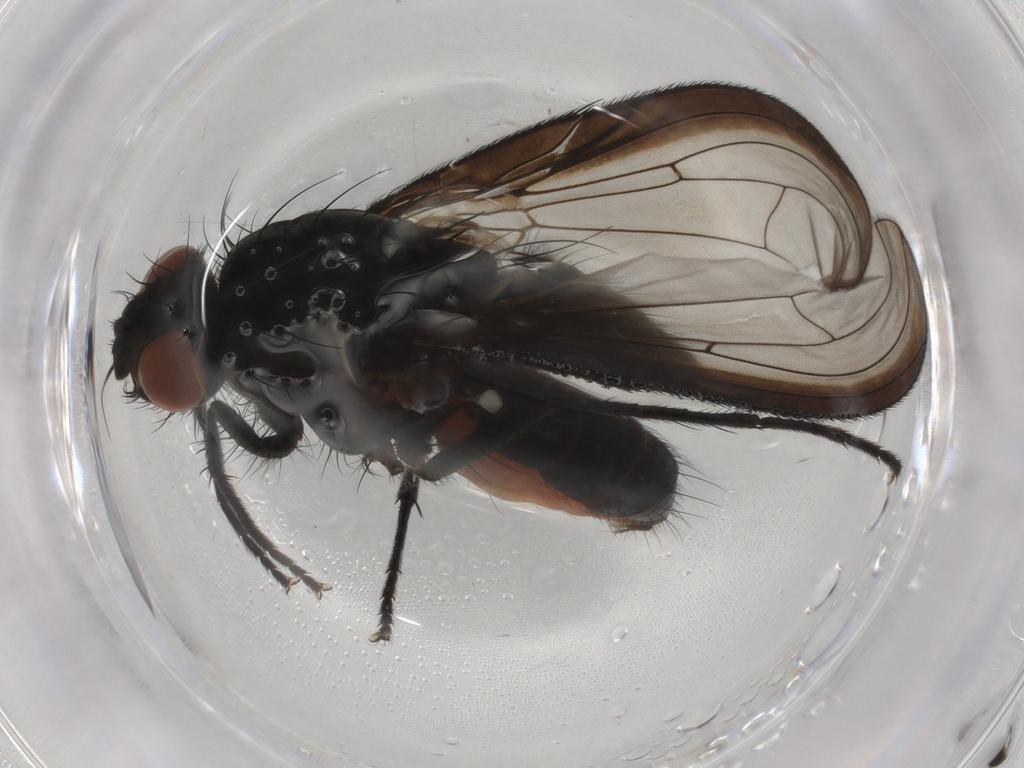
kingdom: Animalia
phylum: Arthropoda
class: Insecta
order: Diptera
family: Anthomyiidae
